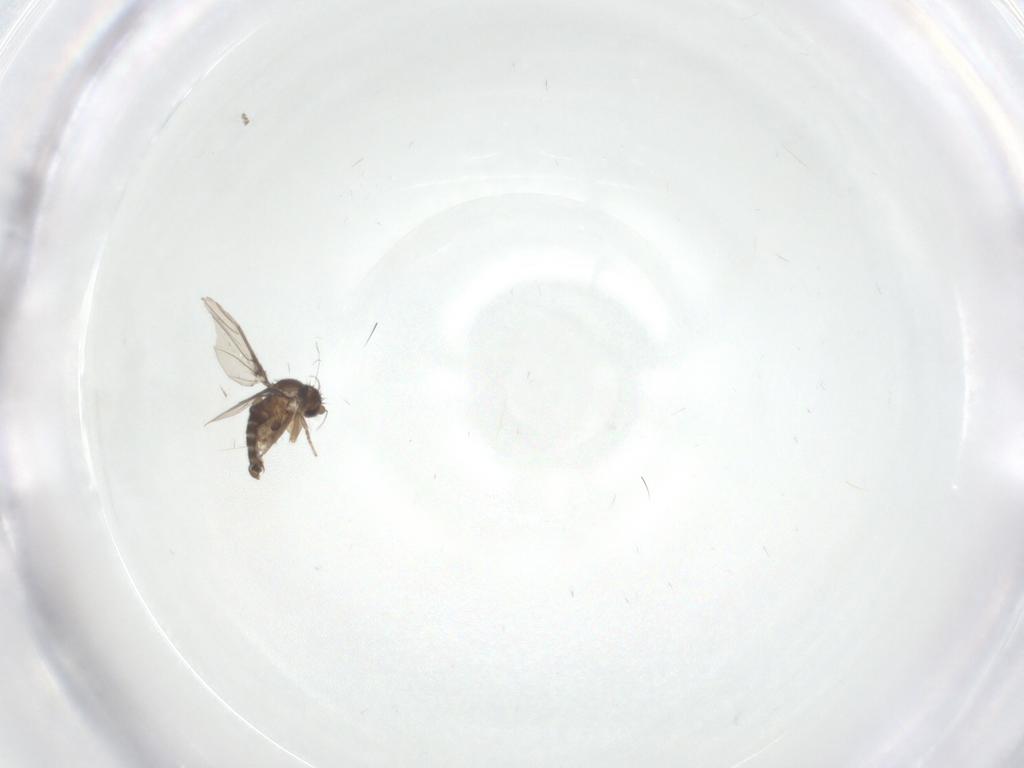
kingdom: Animalia
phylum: Arthropoda
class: Insecta
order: Diptera
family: Phoridae
